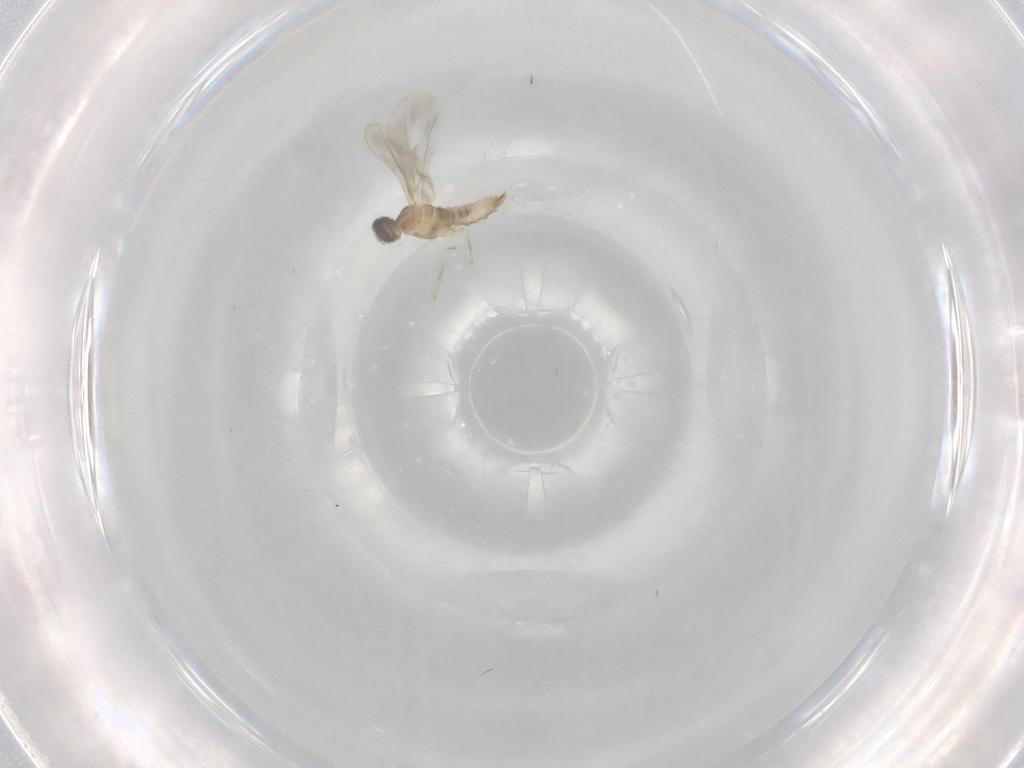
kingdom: Animalia
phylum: Arthropoda
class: Insecta
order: Diptera
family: Cecidomyiidae
